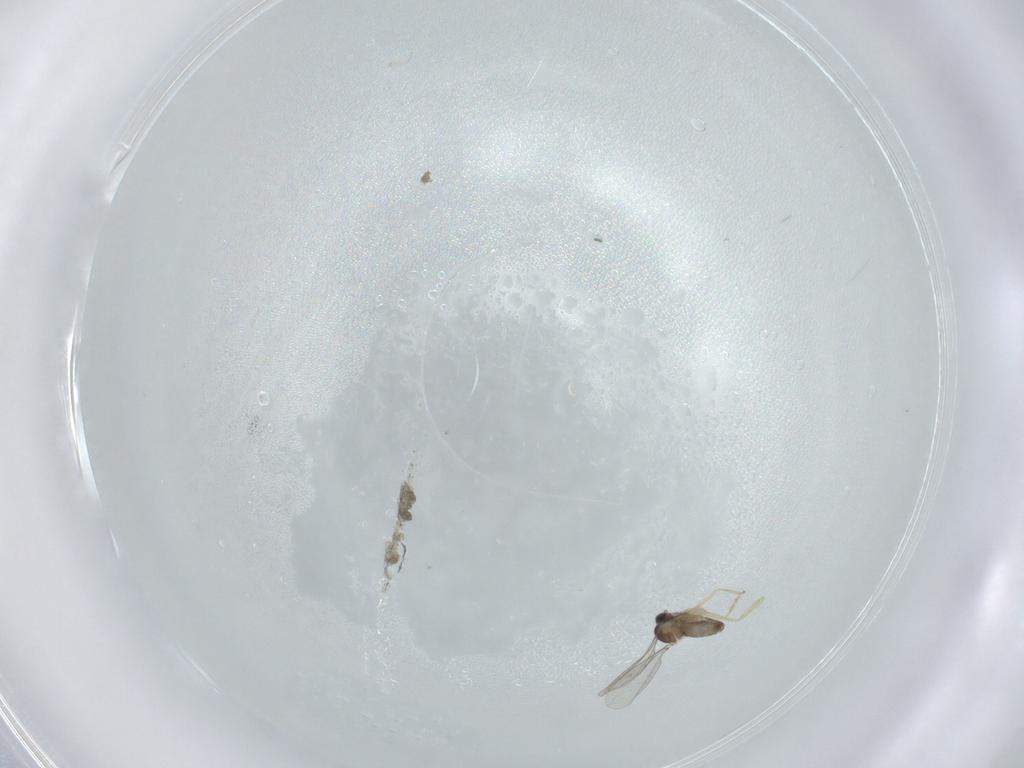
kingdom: Animalia
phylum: Arthropoda
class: Insecta
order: Diptera
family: Cecidomyiidae
